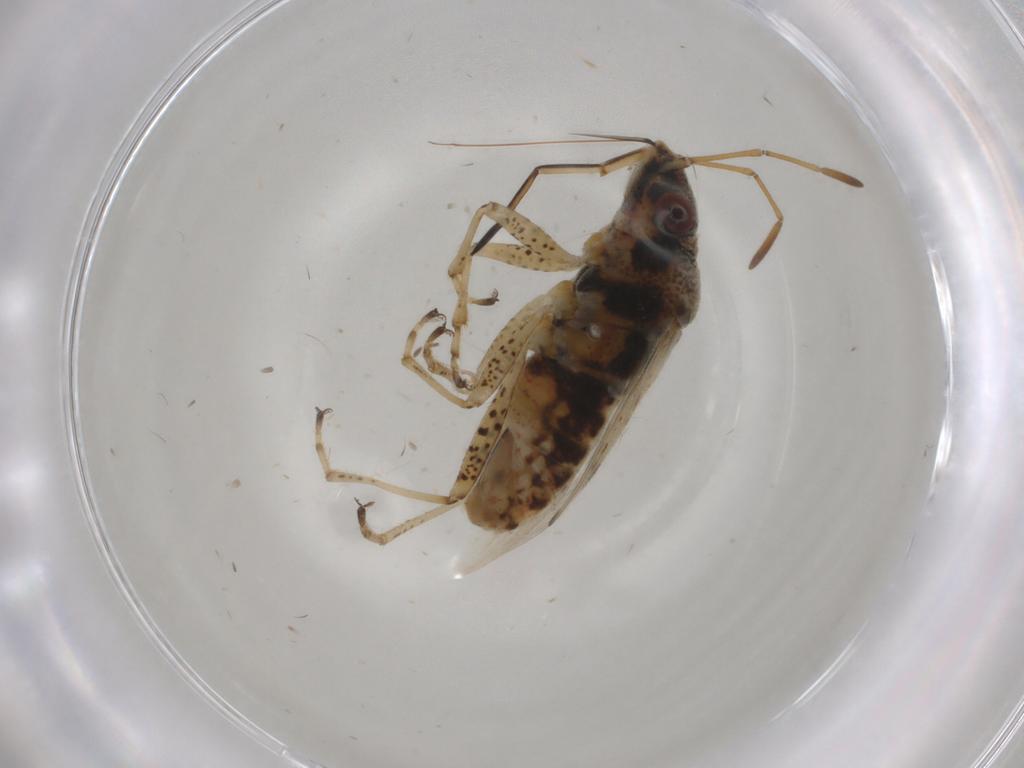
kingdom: Animalia
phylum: Arthropoda
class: Insecta
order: Hemiptera
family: Lygaeidae
